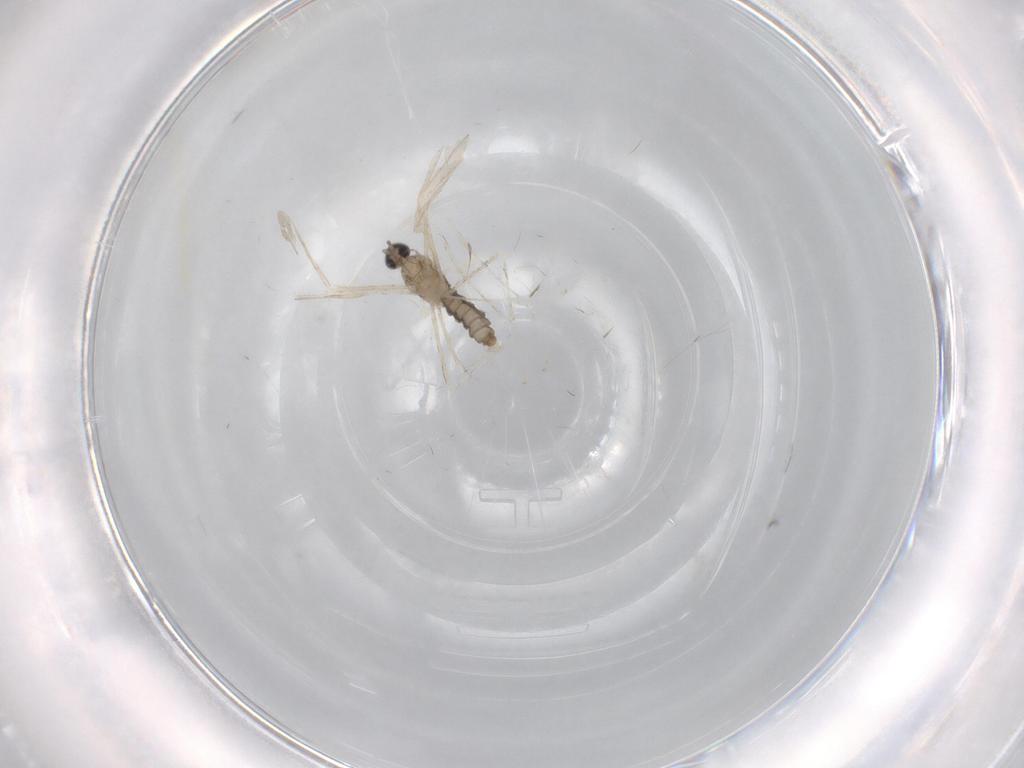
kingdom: Animalia
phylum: Arthropoda
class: Insecta
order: Diptera
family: Cecidomyiidae
